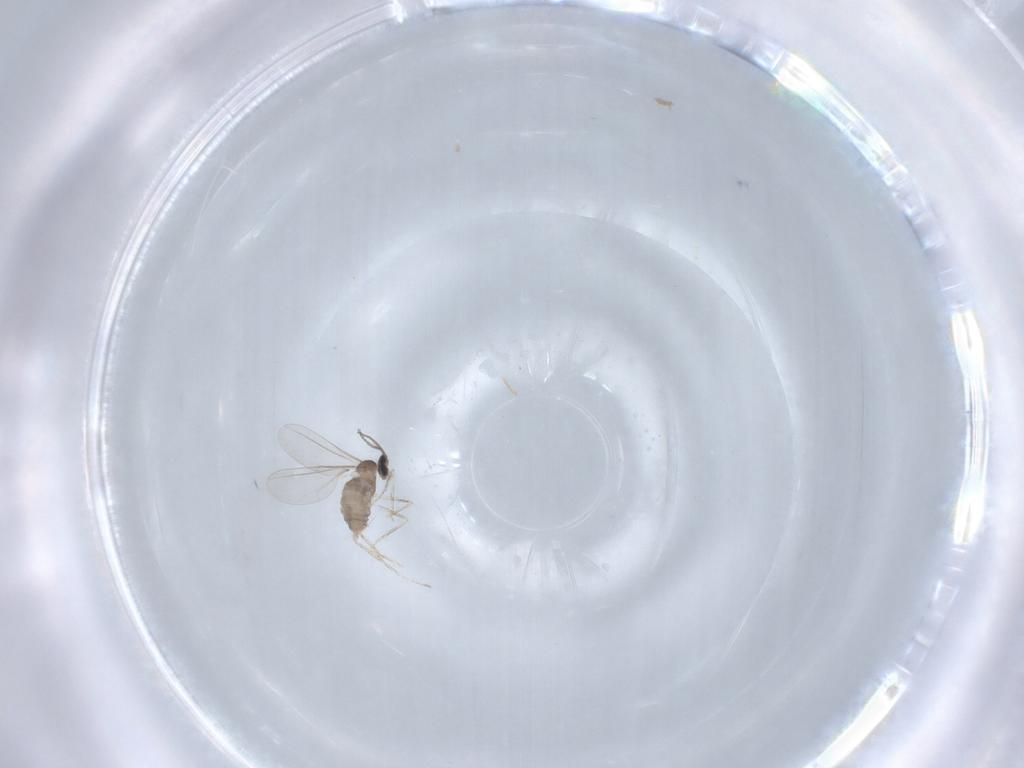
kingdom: Animalia
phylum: Arthropoda
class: Insecta
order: Diptera
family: Cecidomyiidae
